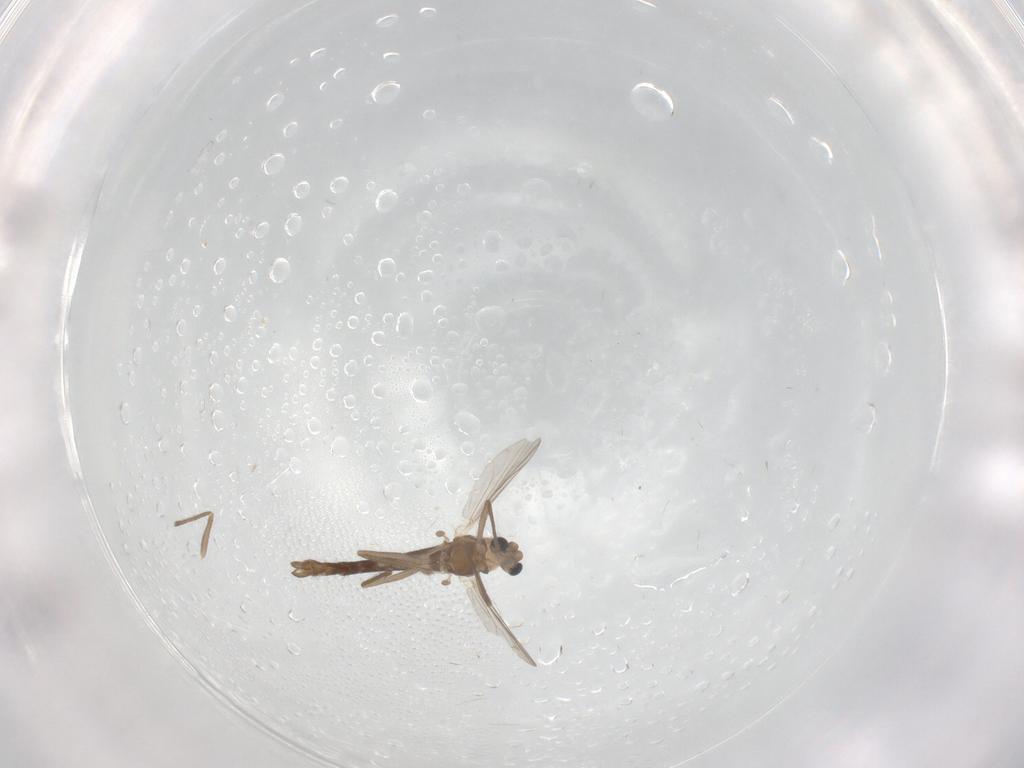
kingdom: Animalia
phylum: Arthropoda
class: Insecta
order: Diptera
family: Chironomidae
